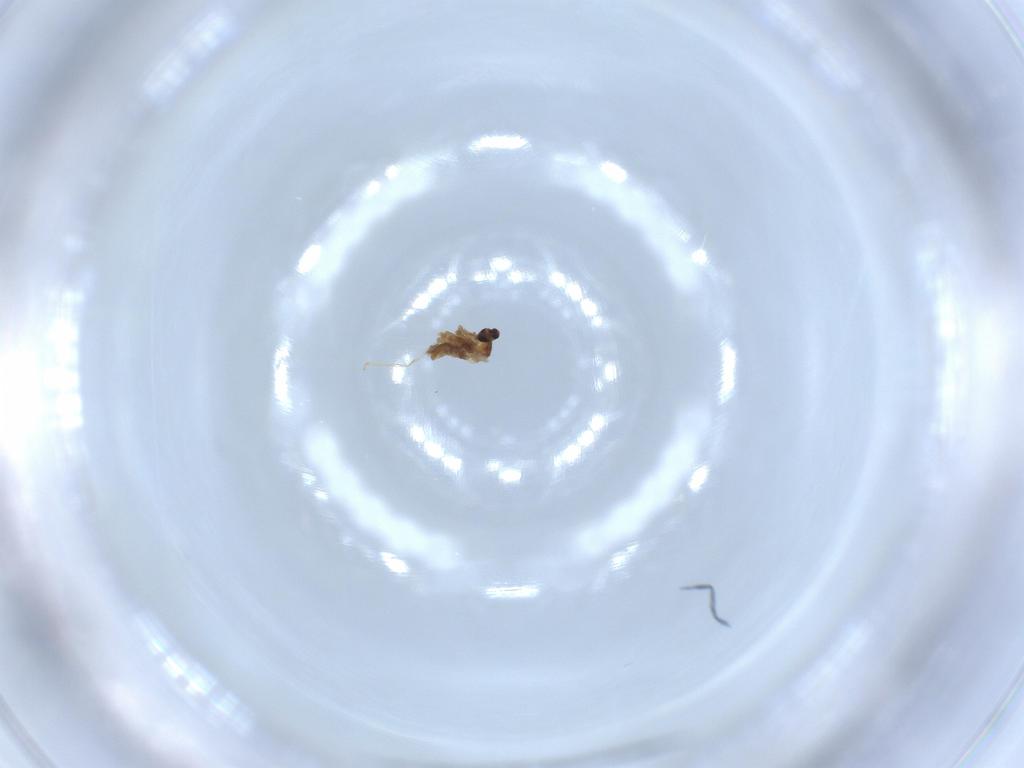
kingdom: Animalia
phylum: Arthropoda
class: Insecta
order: Diptera
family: Cecidomyiidae
